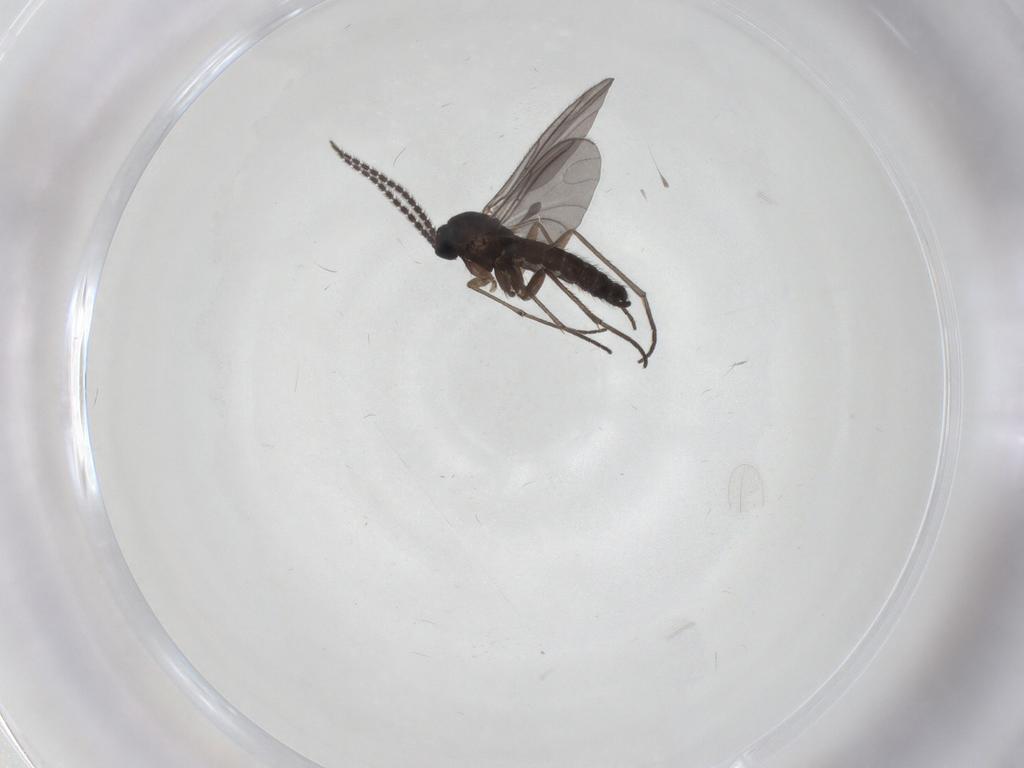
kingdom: Animalia
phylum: Arthropoda
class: Insecta
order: Diptera
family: Sciaridae
